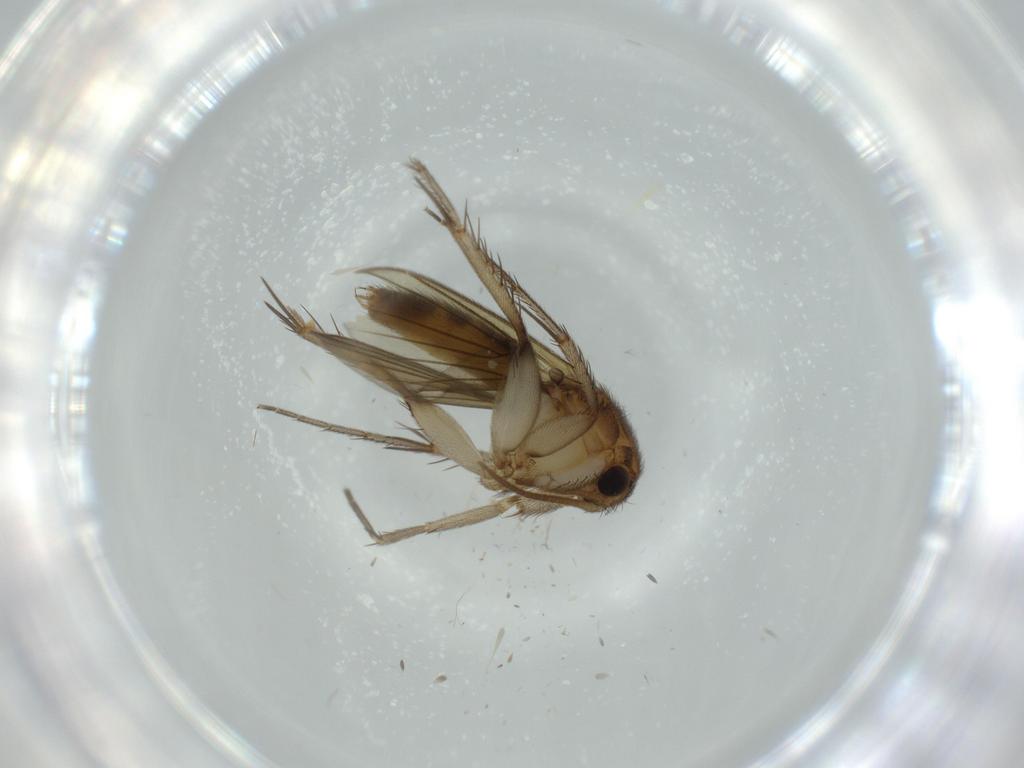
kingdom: Animalia
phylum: Arthropoda
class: Insecta
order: Diptera
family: Mycetophilidae
